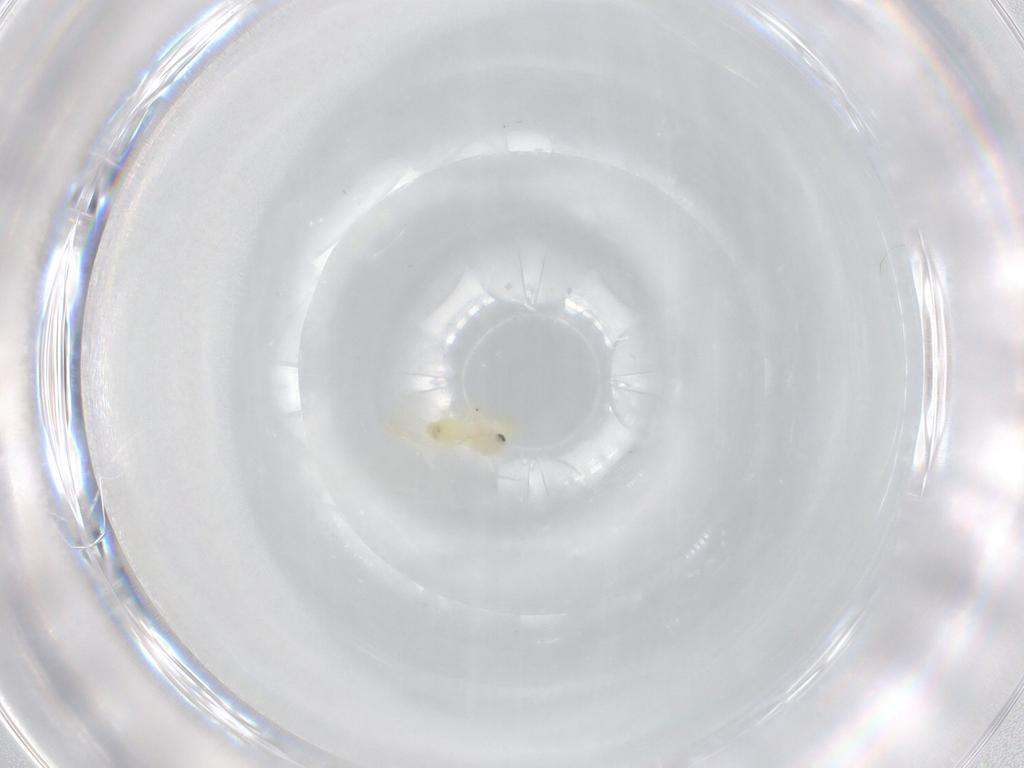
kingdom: Animalia
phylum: Arthropoda
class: Insecta
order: Hemiptera
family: Aleyrodidae
